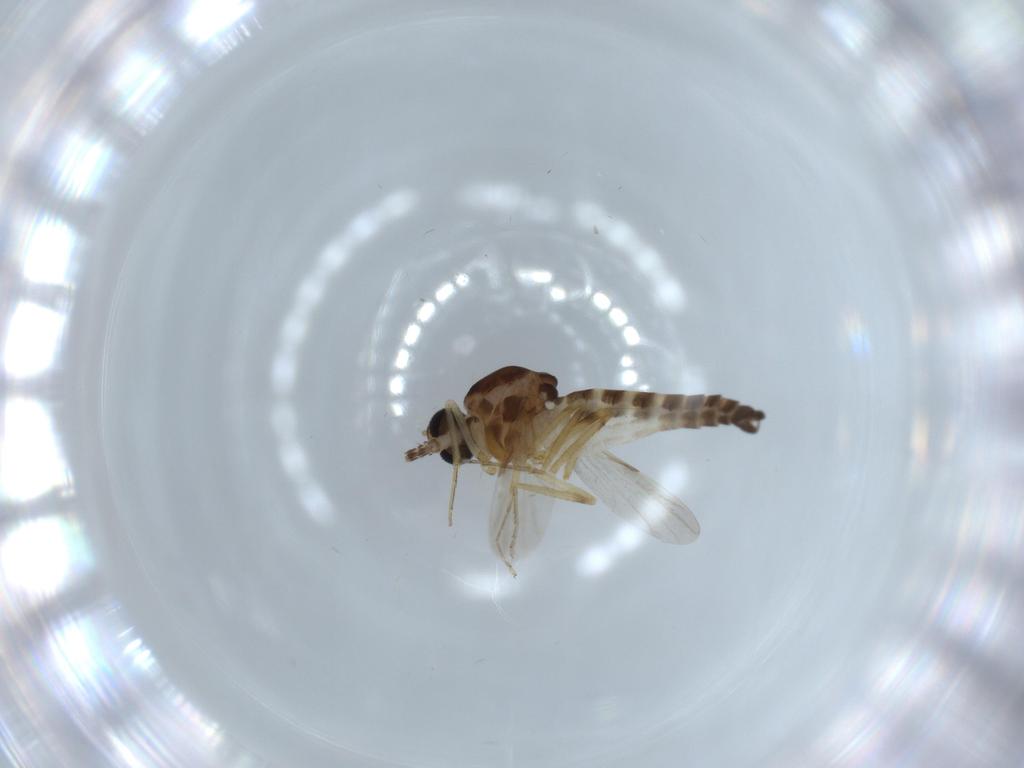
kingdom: Animalia
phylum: Arthropoda
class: Insecta
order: Diptera
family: Cecidomyiidae
